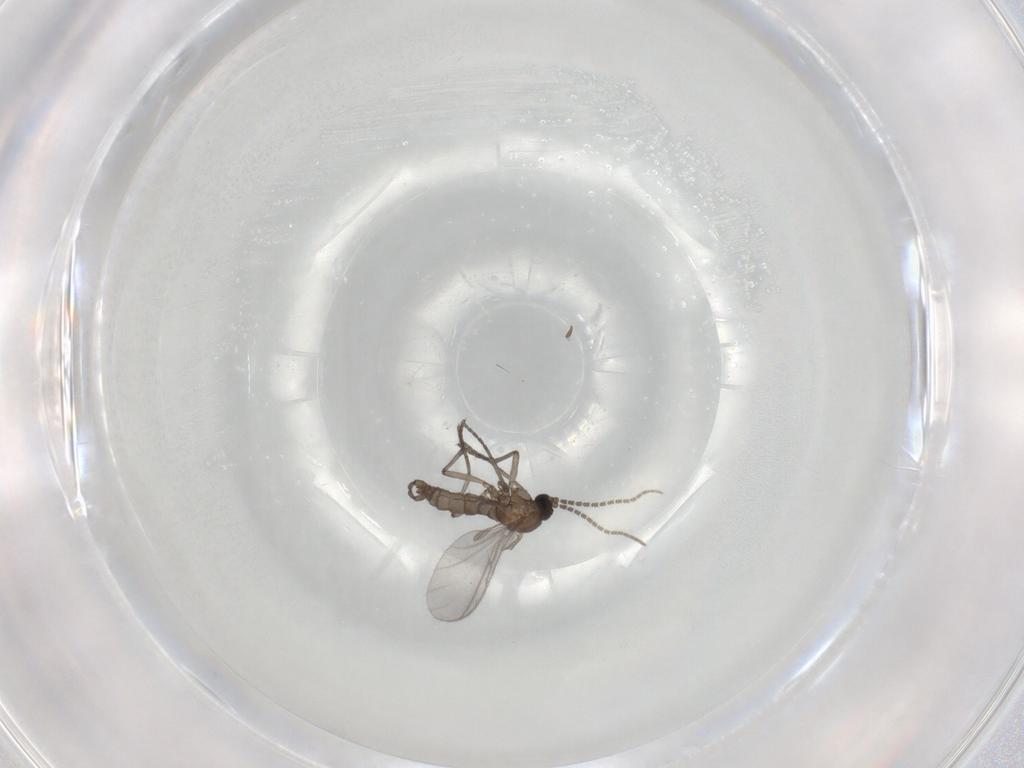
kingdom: Animalia
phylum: Arthropoda
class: Insecta
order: Diptera
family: Sciaridae
